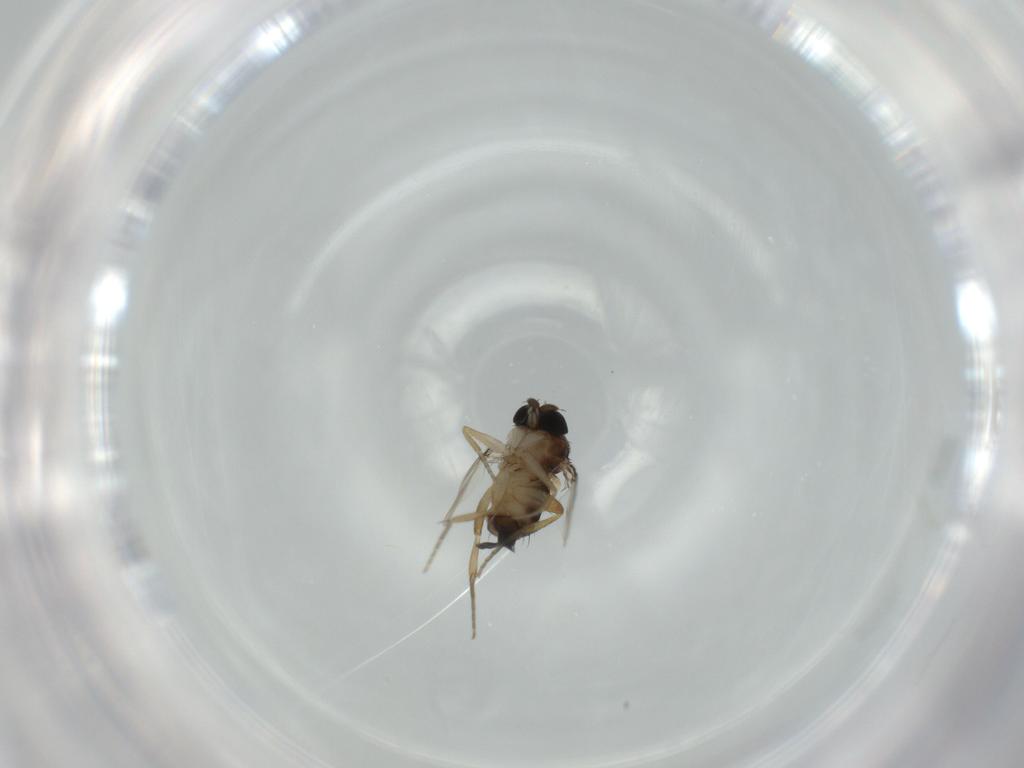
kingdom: Animalia
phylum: Arthropoda
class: Insecta
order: Diptera
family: Phoridae
